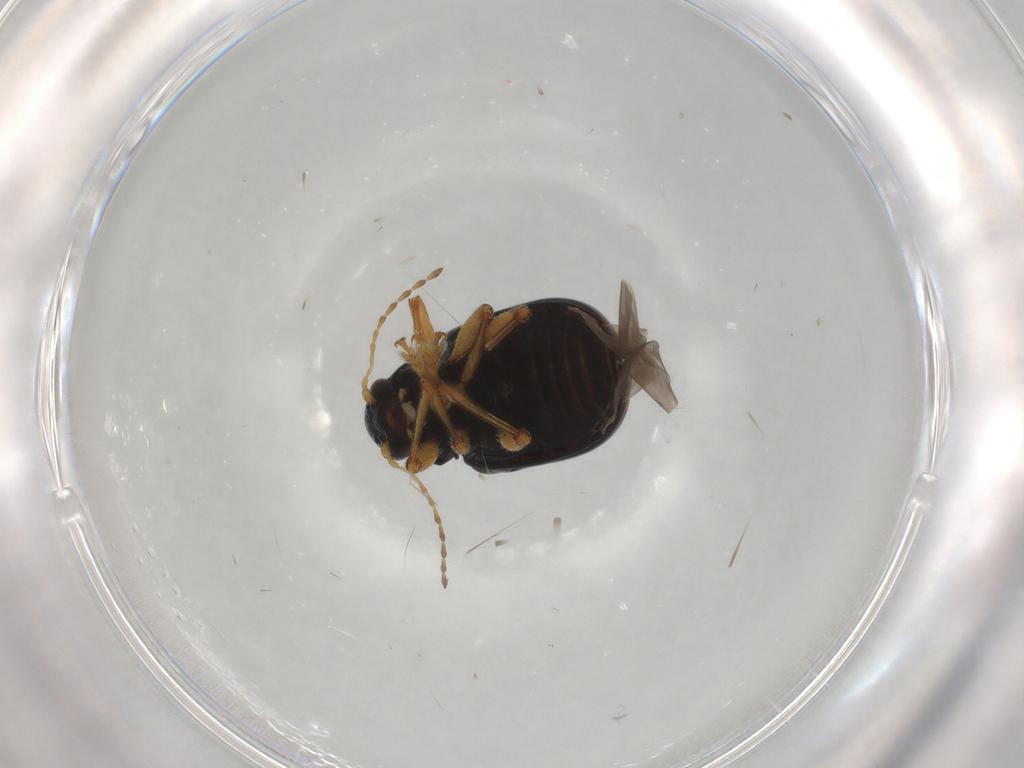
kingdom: Animalia
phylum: Arthropoda
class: Insecta
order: Coleoptera
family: Chrysomelidae
